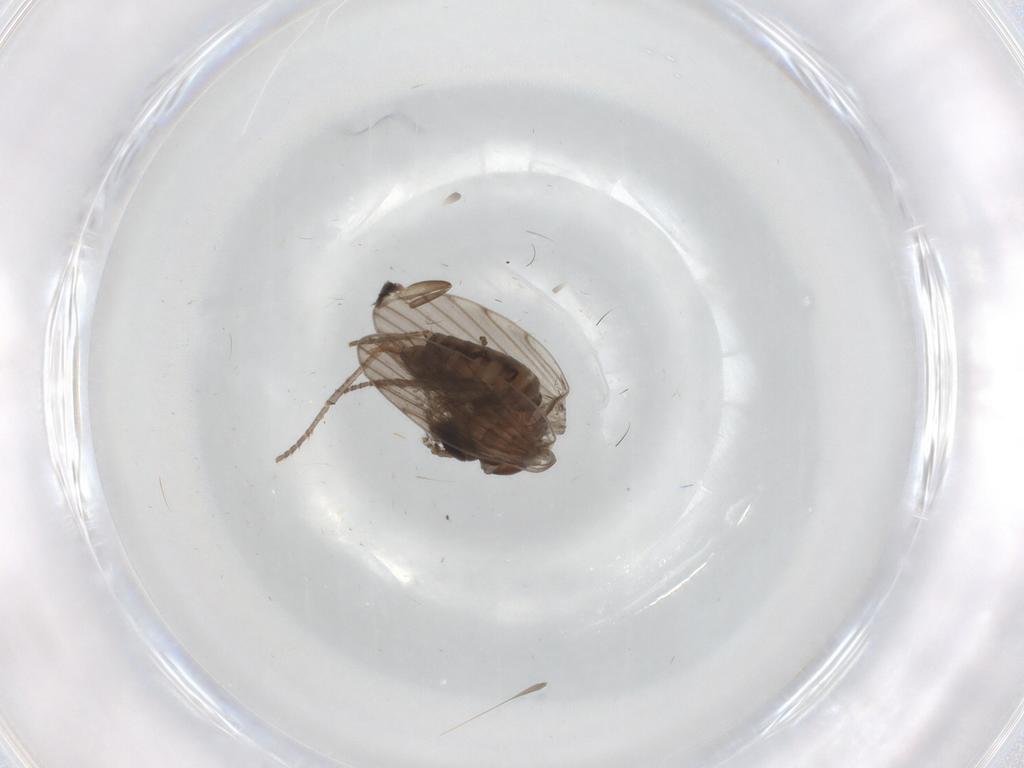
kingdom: Animalia
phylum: Arthropoda
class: Insecta
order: Diptera
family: Psychodidae
